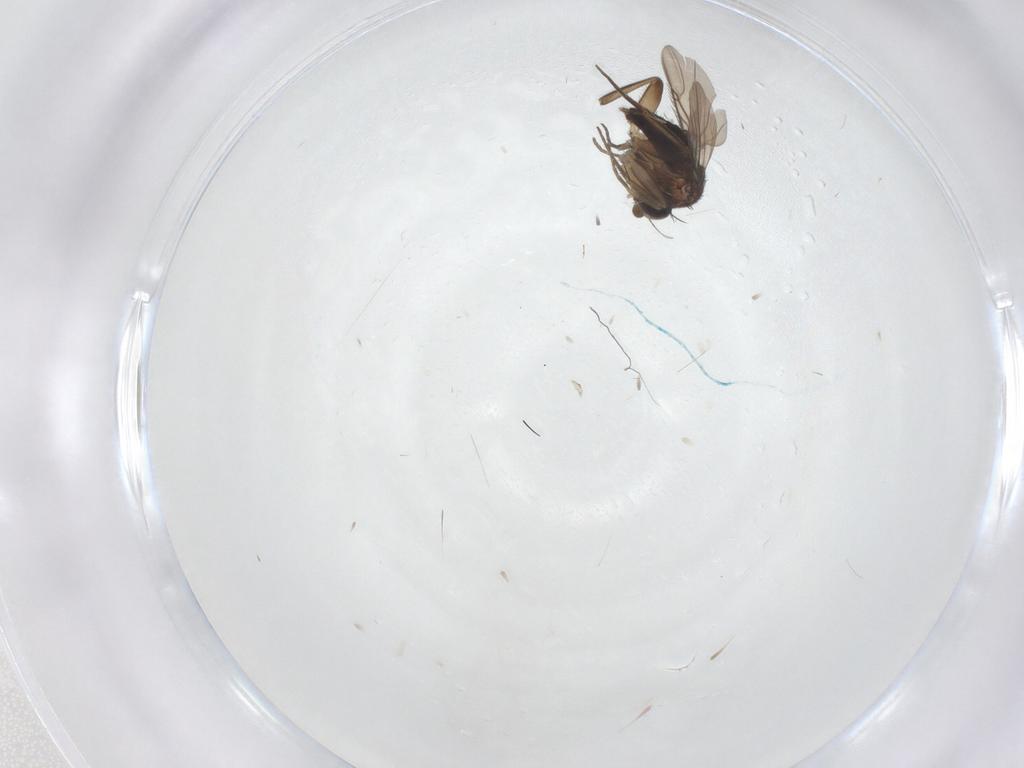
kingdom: Animalia
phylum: Arthropoda
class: Insecta
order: Diptera
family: Phoridae
